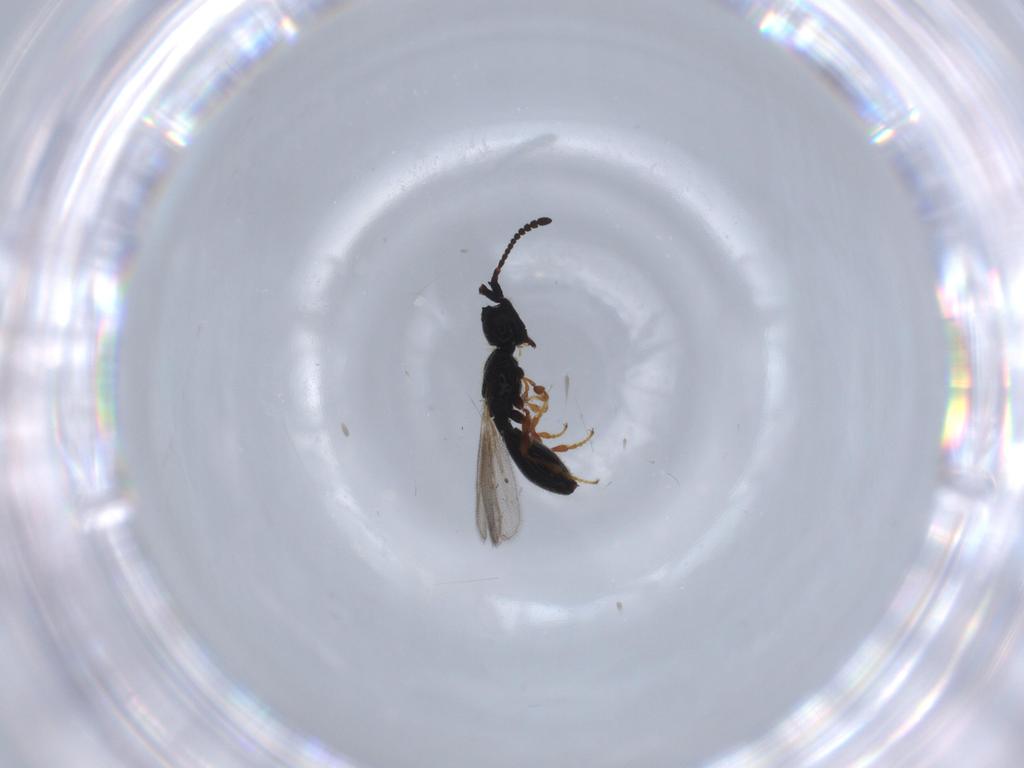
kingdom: Animalia
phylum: Arthropoda
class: Insecta
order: Hymenoptera
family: Diapriidae
